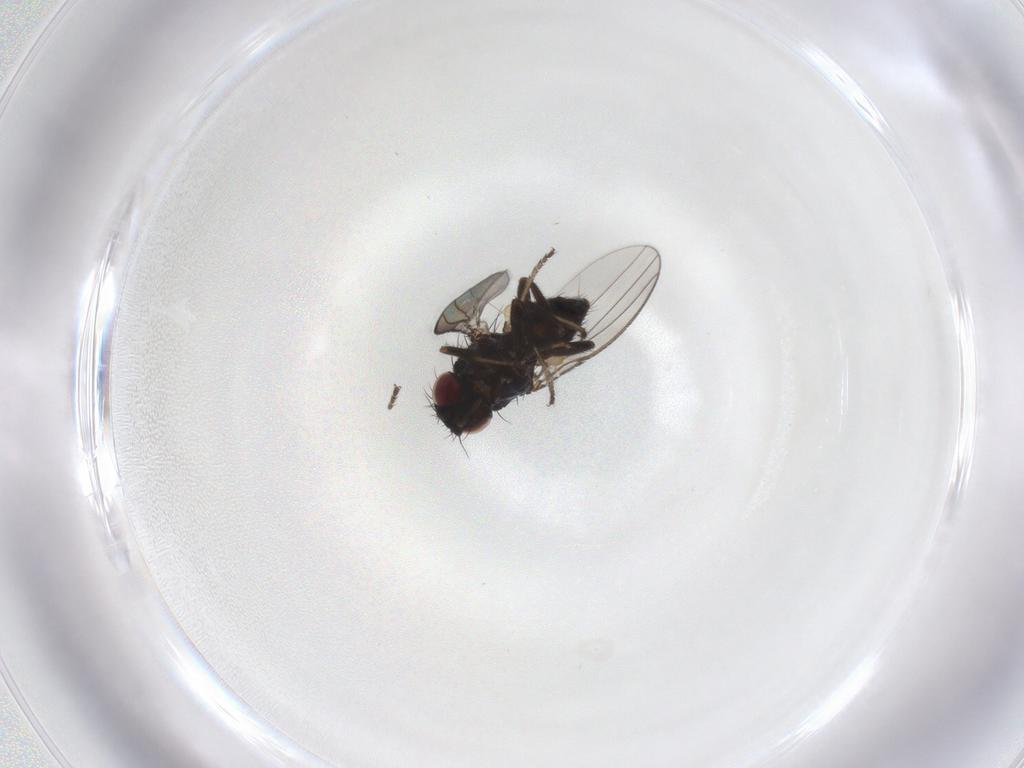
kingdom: Animalia
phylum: Arthropoda
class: Insecta
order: Diptera
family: Milichiidae
